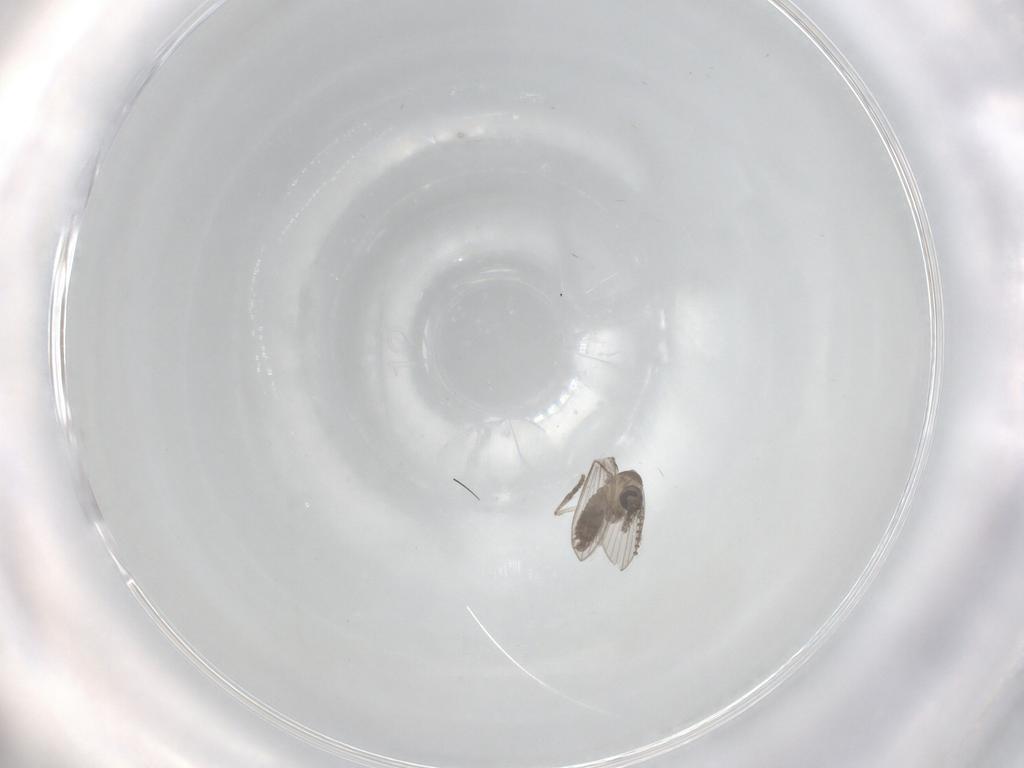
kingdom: Animalia
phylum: Arthropoda
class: Insecta
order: Diptera
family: Psychodidae
